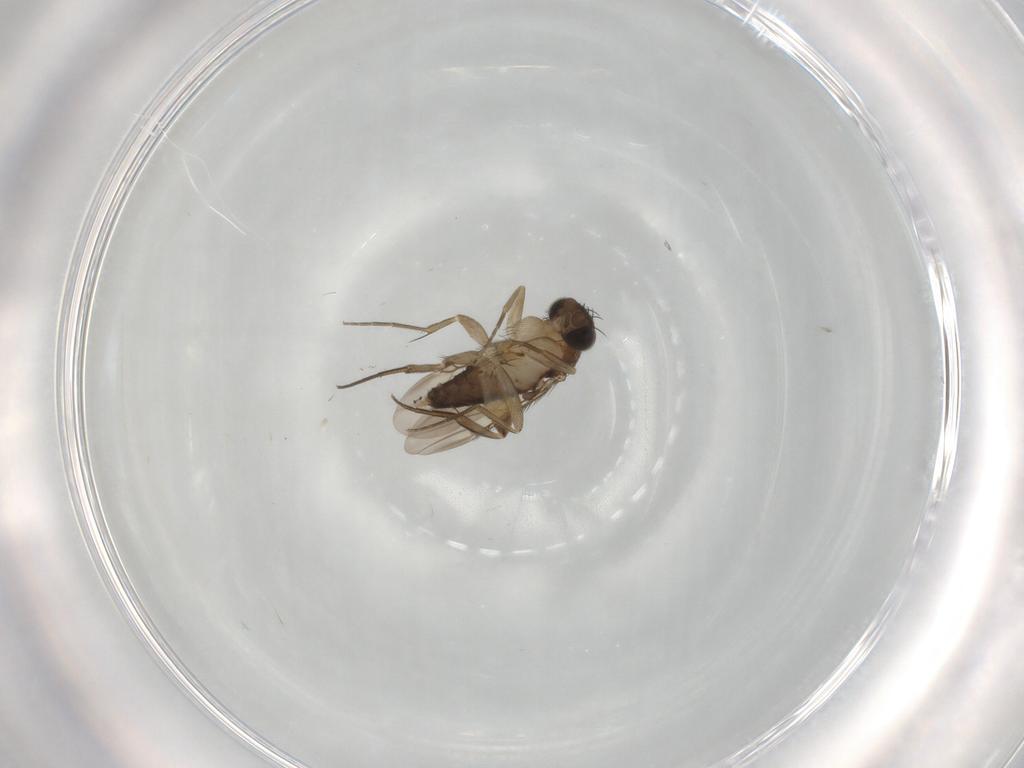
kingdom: Animalia
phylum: Arthropoda
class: Insecta
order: Diptera
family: Phoridae
